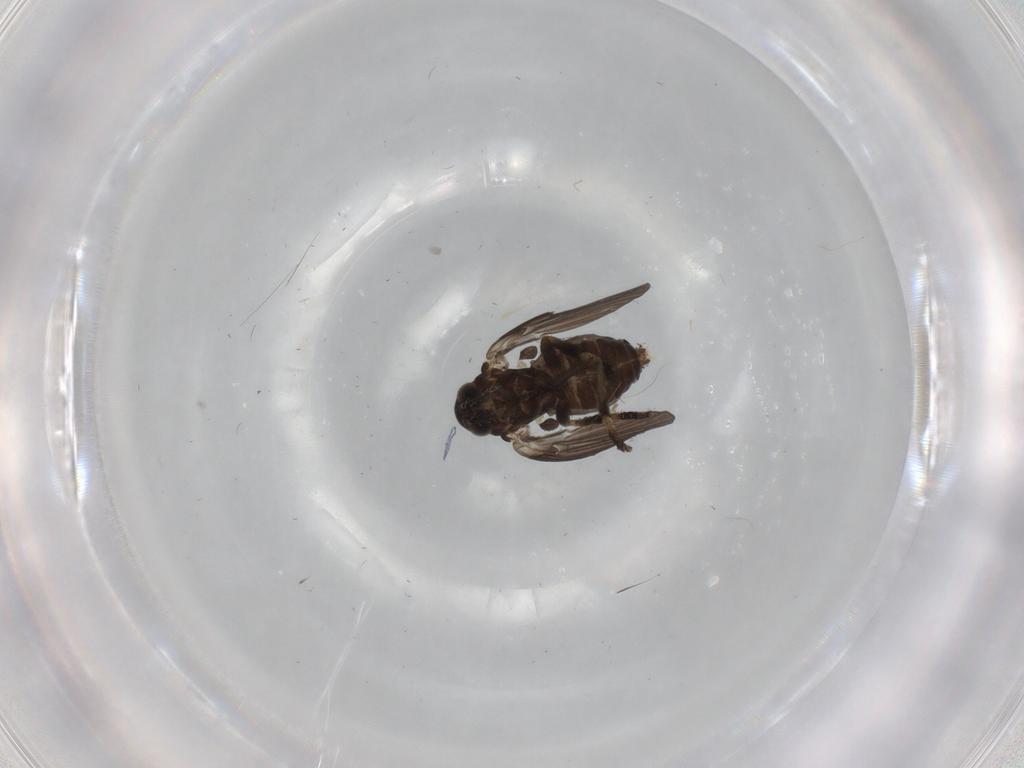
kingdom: Animalia
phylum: Arthropoda
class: Insecta
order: Diptera
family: Psychodidae
